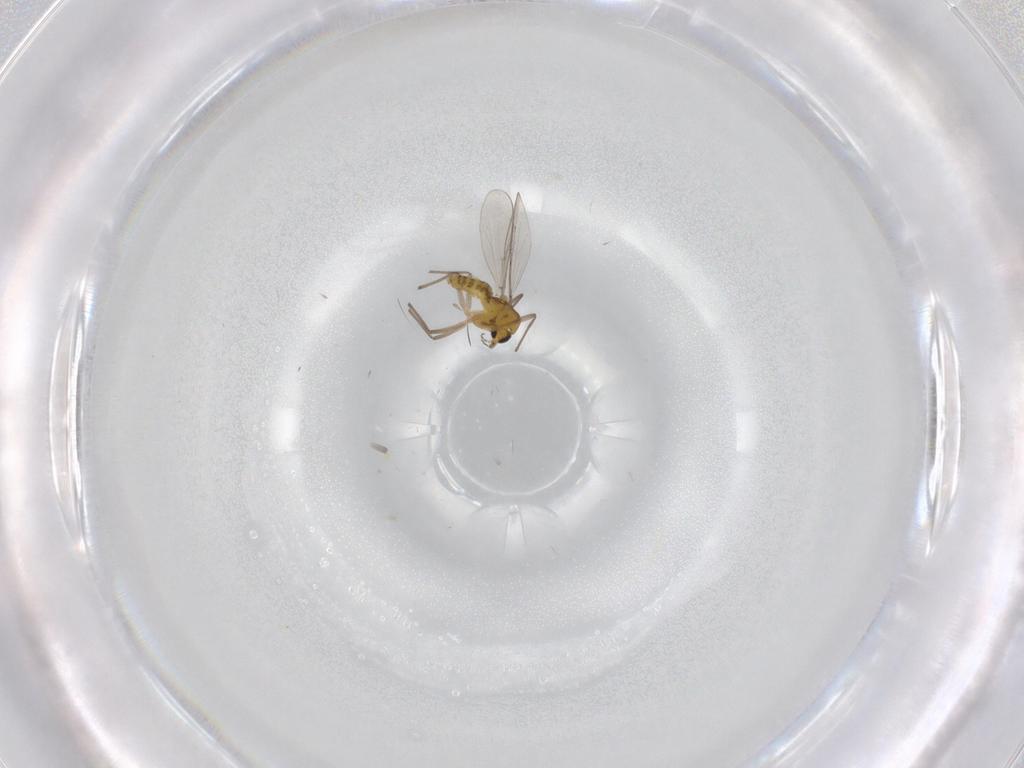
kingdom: Animalia
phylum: Arthropoda
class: Insecta
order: Diptera
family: Chironomidae
